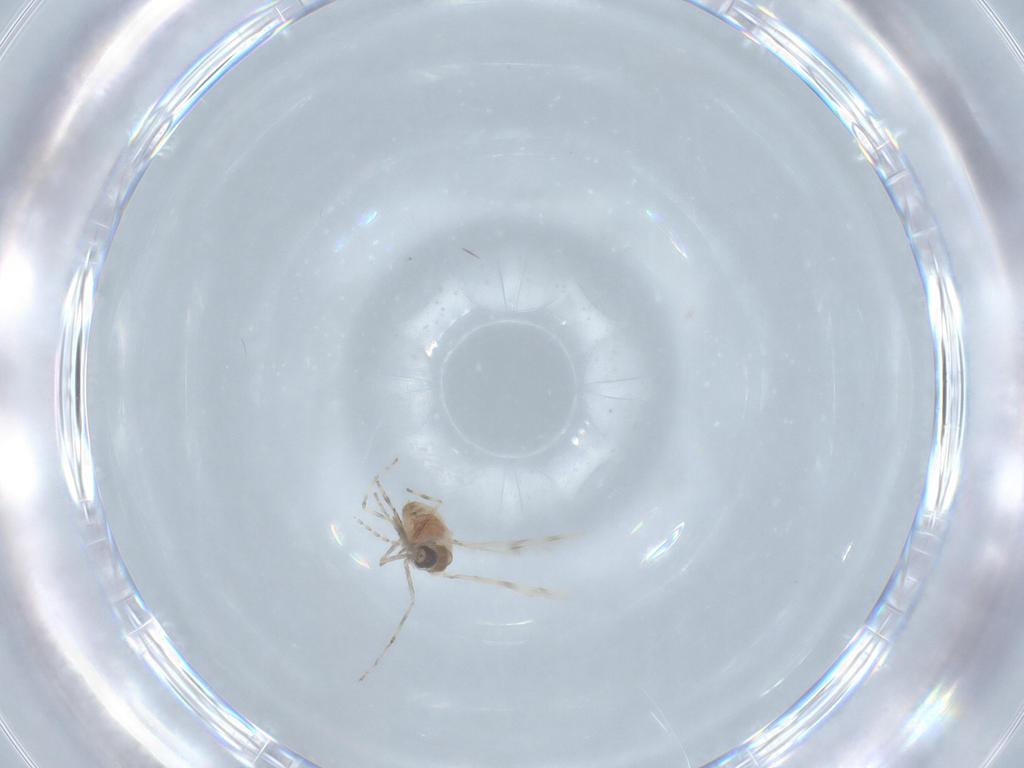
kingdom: Animalia
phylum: Arthropoda
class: Insecta
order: Diptera
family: Cecidomyiidae
